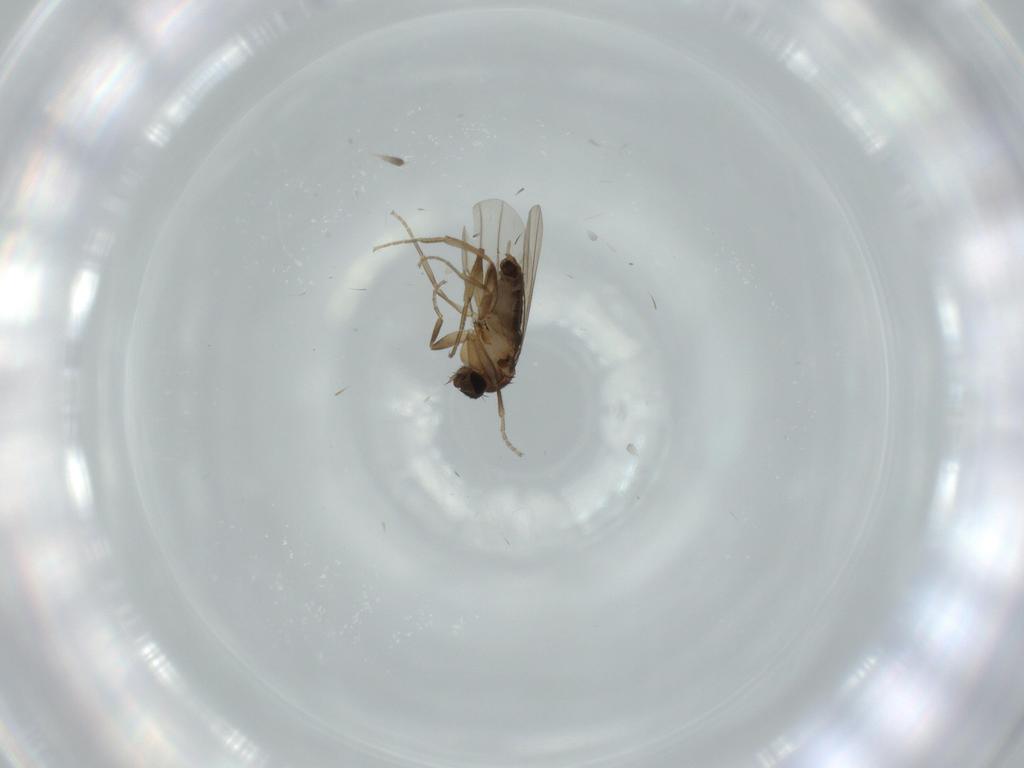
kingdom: Animalia
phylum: Arthropoda
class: Insecta
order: Diptera
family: Phoridae
